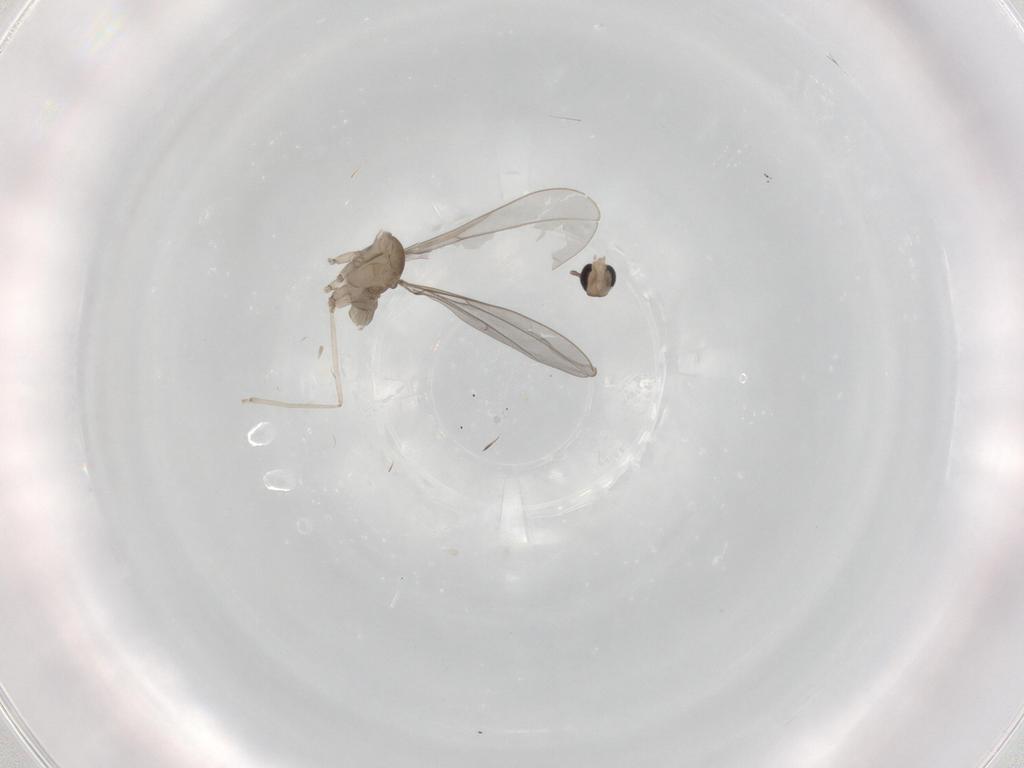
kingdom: Animalia
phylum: Arthropoda
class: Insecta
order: Diptera
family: Cecidomyiidae
